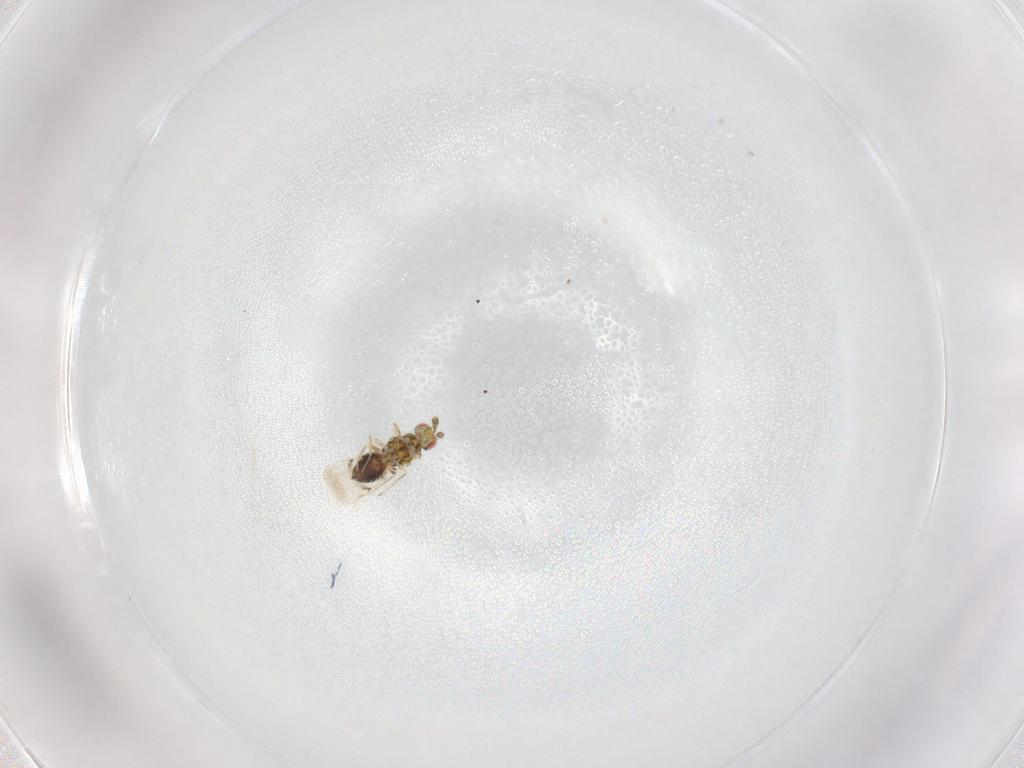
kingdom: Animalia
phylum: Arthropoda
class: Insecta
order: Hymenoptera
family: Eulophidae
